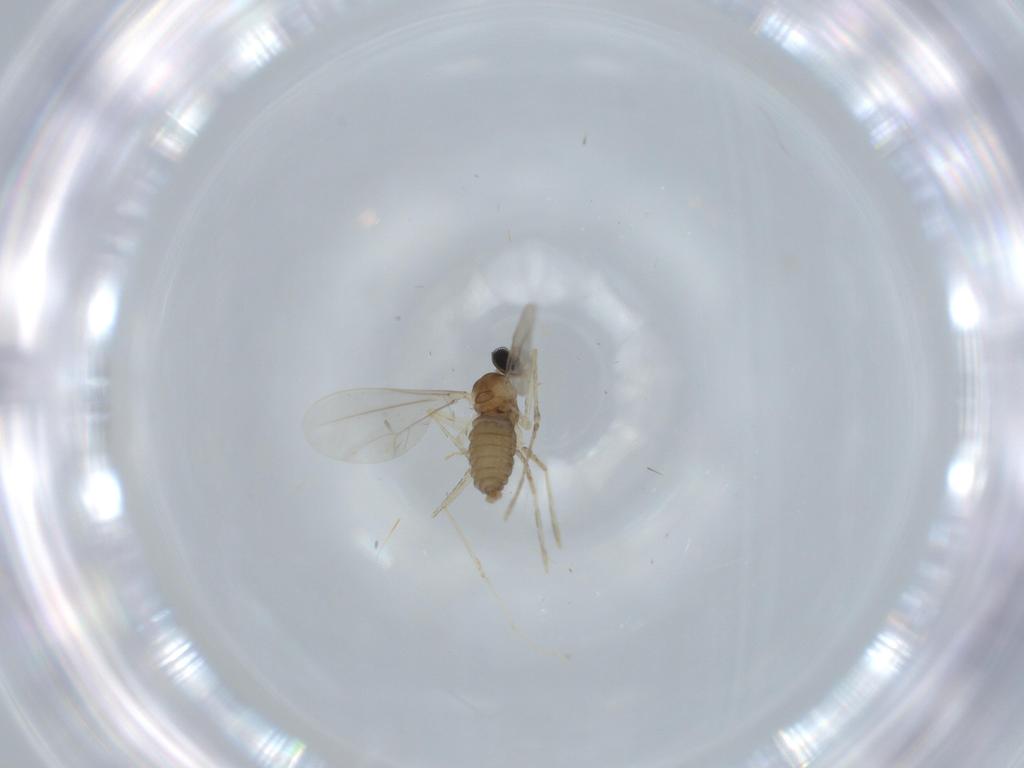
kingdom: Animalia
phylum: Arthropoda
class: Insecta
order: Diptera
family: Cecidomyiidae
